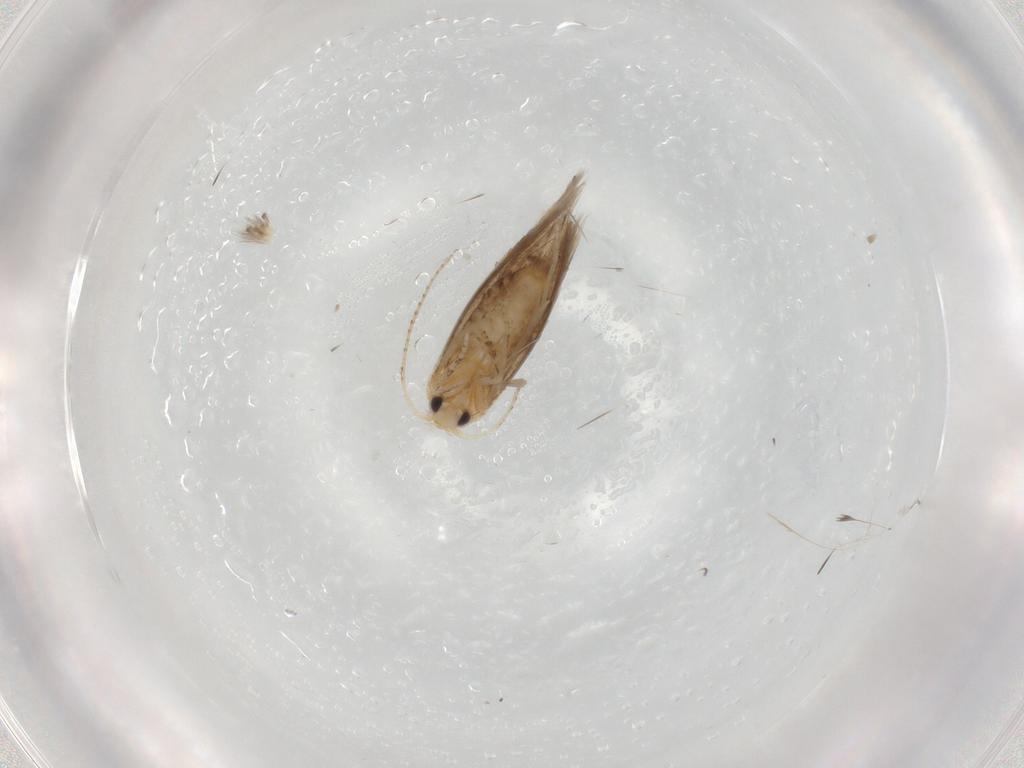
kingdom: Animalia
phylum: Arthropoda
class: Insecta
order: Lepidoptera
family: Bucculatricidae
